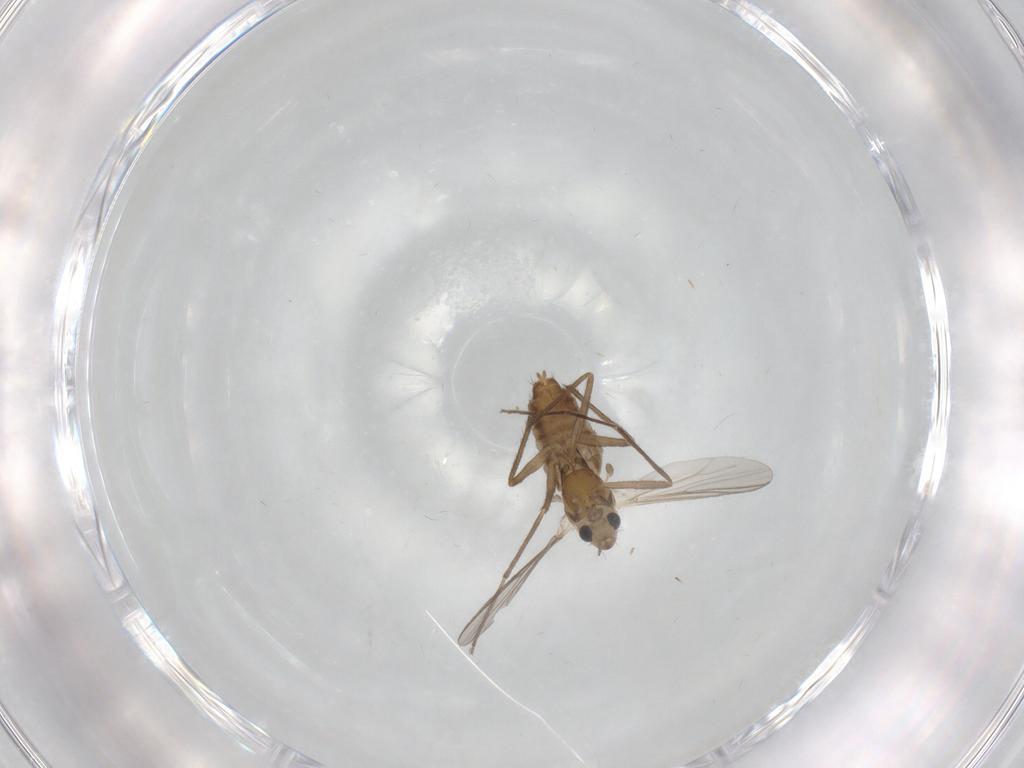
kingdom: Animalia
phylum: Arthropoda
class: Insecta
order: Diptera
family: Chironomidae
